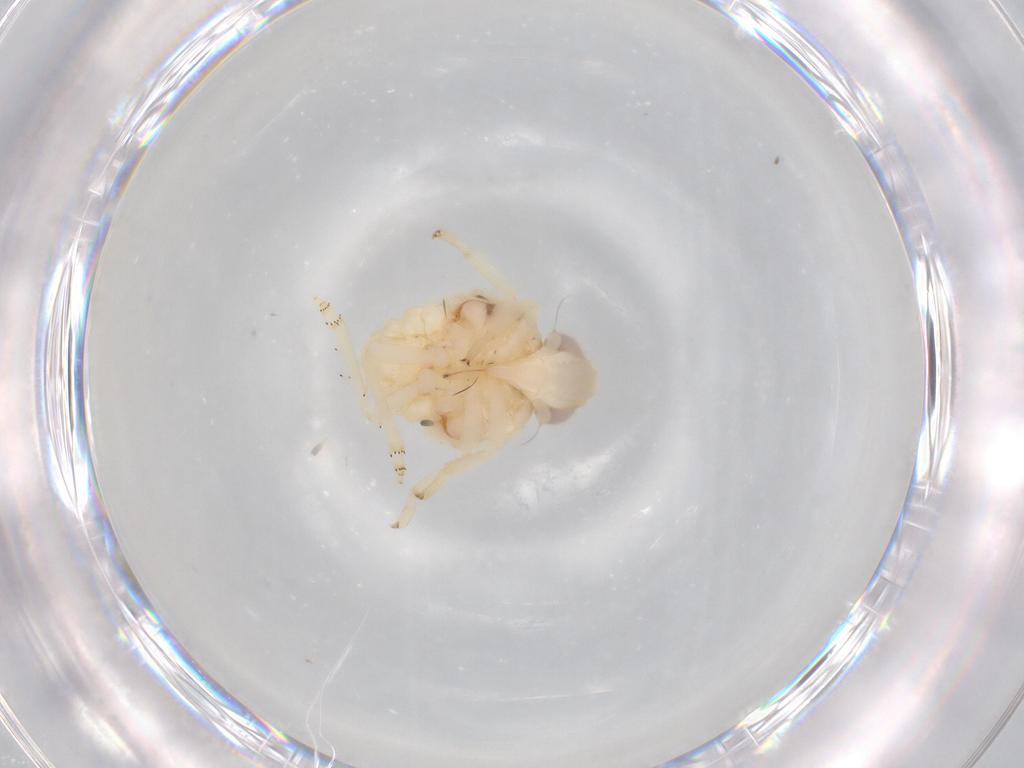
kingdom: Animalia
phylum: Arthropoda
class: Insecta
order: Hemiptera
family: Nogodinidae
